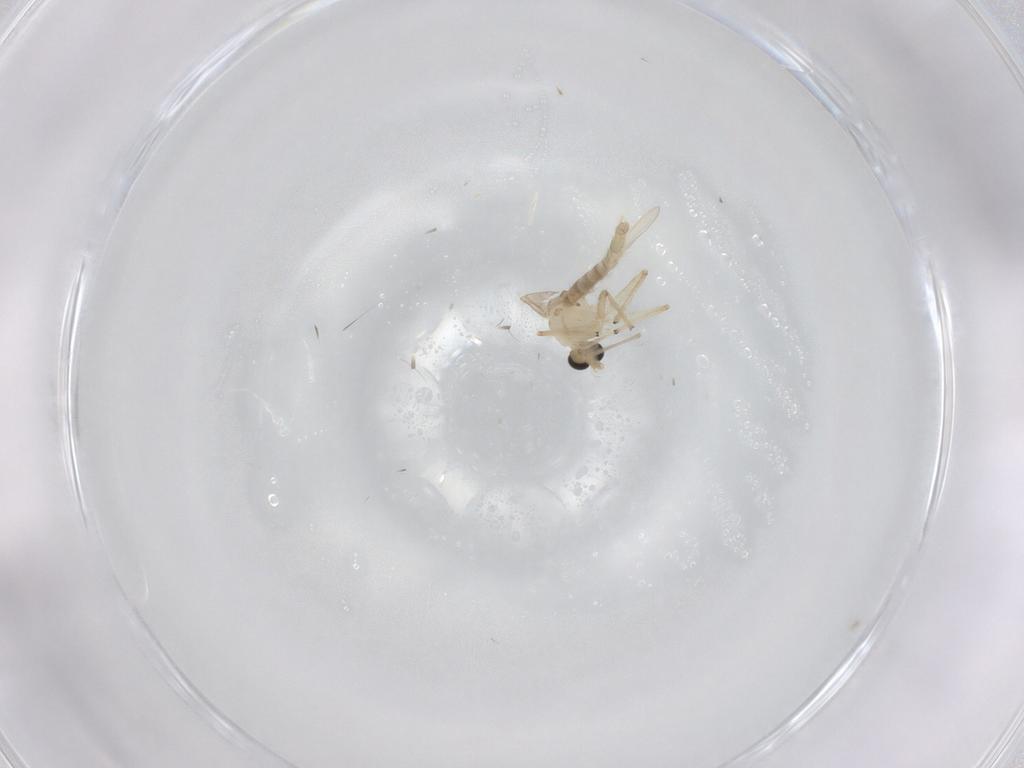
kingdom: Animalia
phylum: Arthropoda
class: Insecta
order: Diptera
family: Chironomidae
